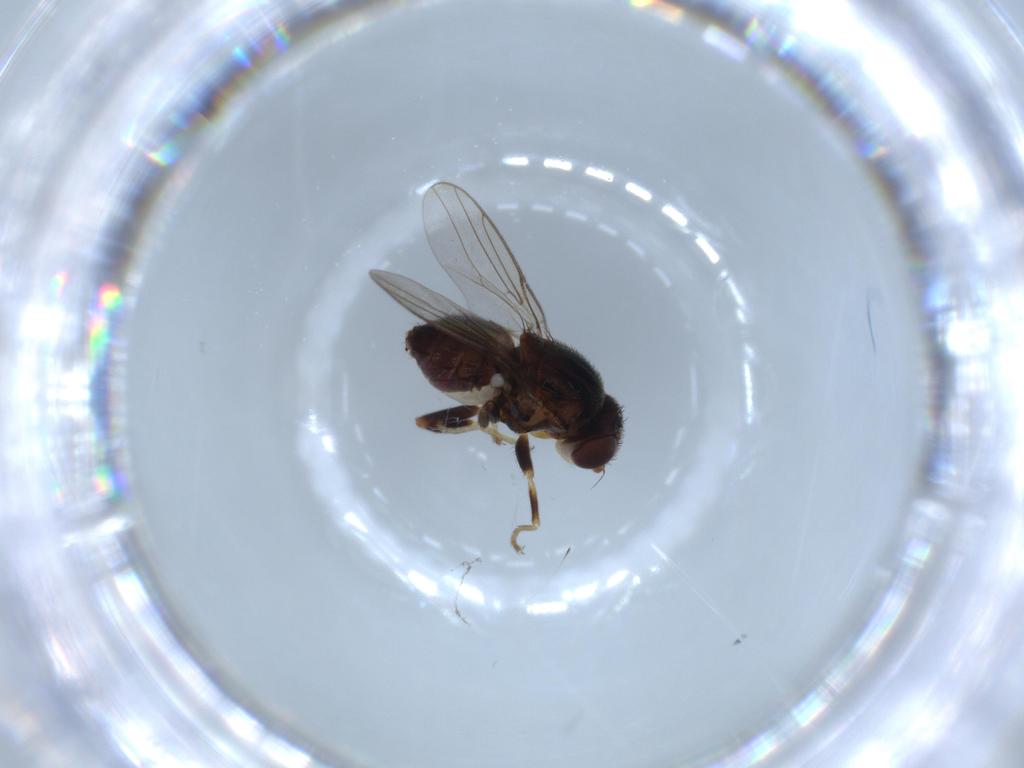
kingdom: Animalia
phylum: Arthropoda
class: Insecta
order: Diptera
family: Chloropidae
